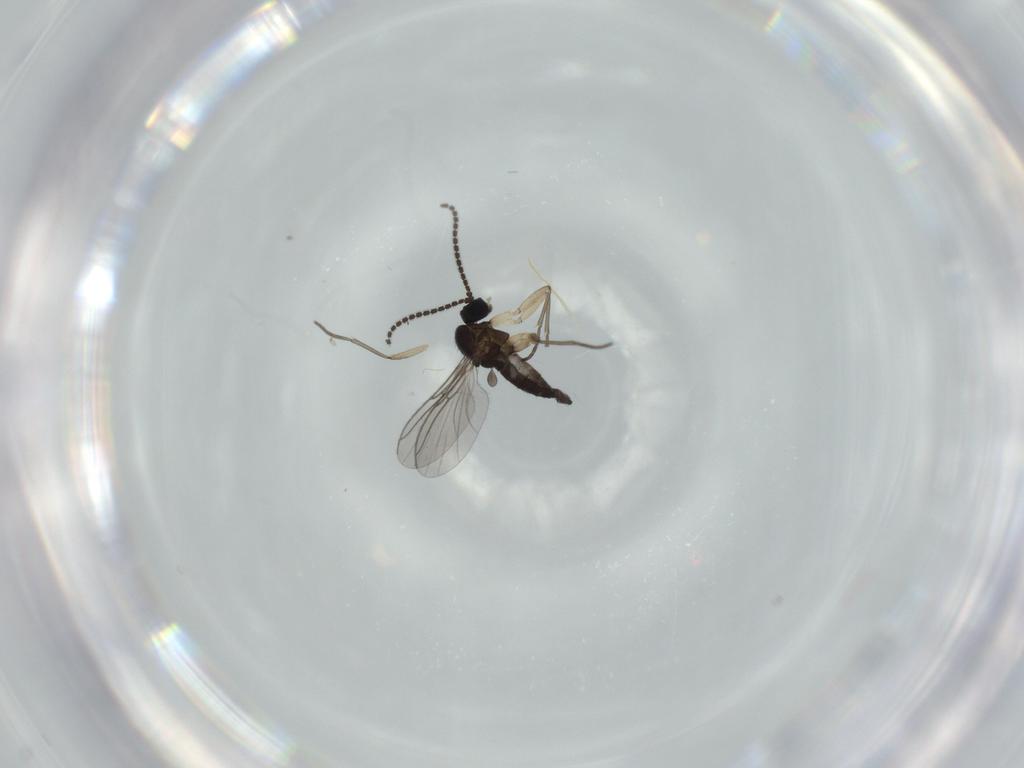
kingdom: Animalia
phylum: Arthropoda
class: Insecta
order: Diptera
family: Sciaridae
